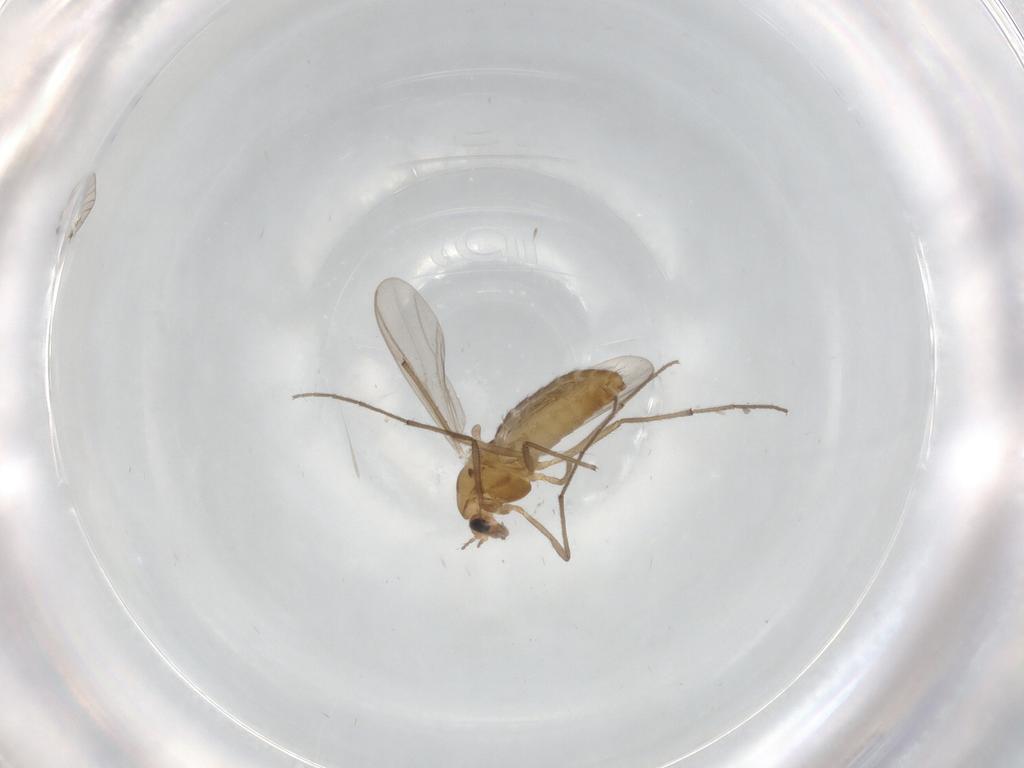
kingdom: Animalia
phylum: Arthropoda
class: Insecta
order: Diptera
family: Chironomidae
